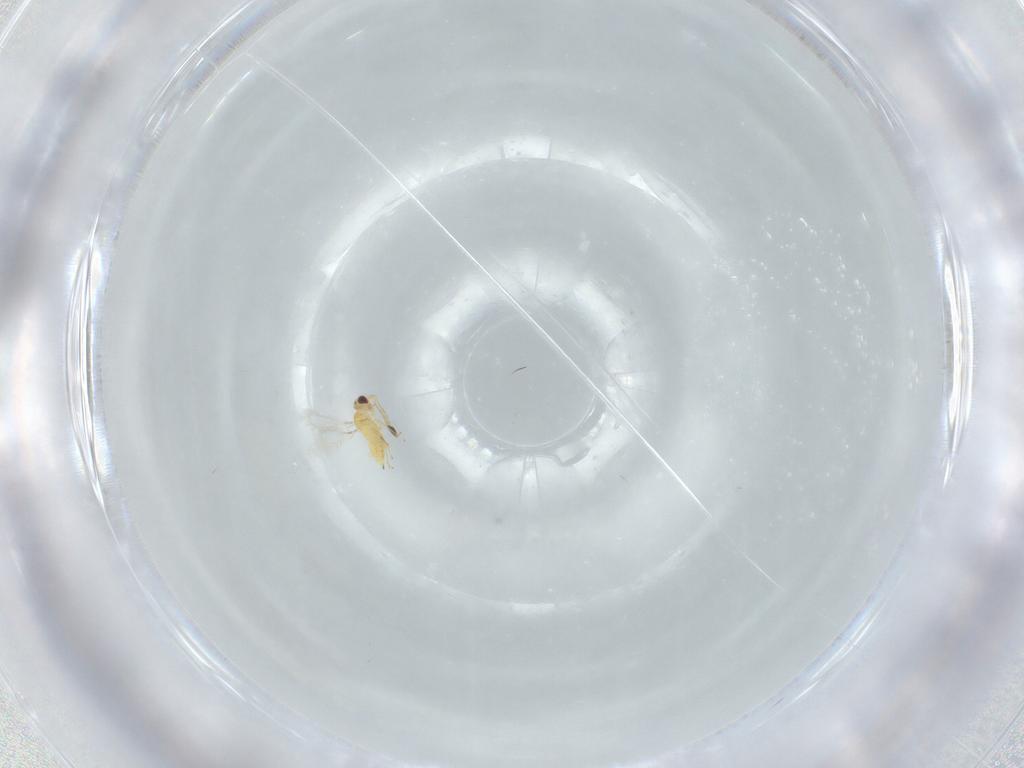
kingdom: Animalia
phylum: Arthropoda
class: Insecta
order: Hymenoptera
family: Mymaridae
